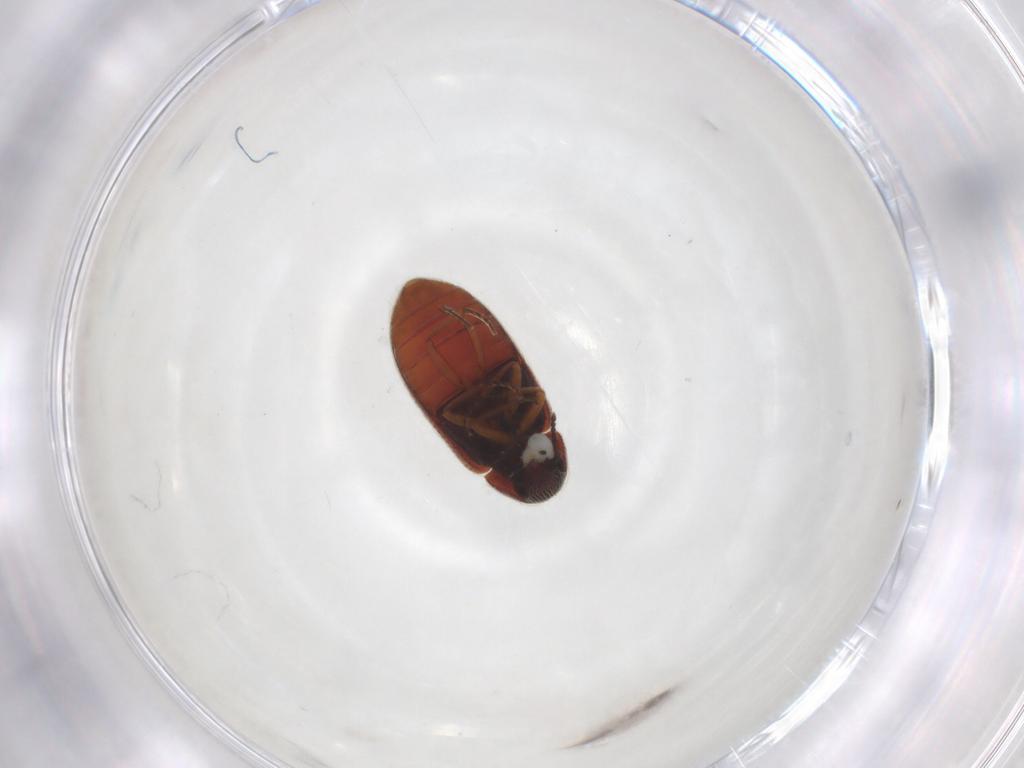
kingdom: Animalia
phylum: Arthropoda
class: Insecta
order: Coleoptera
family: Rhadalidae
